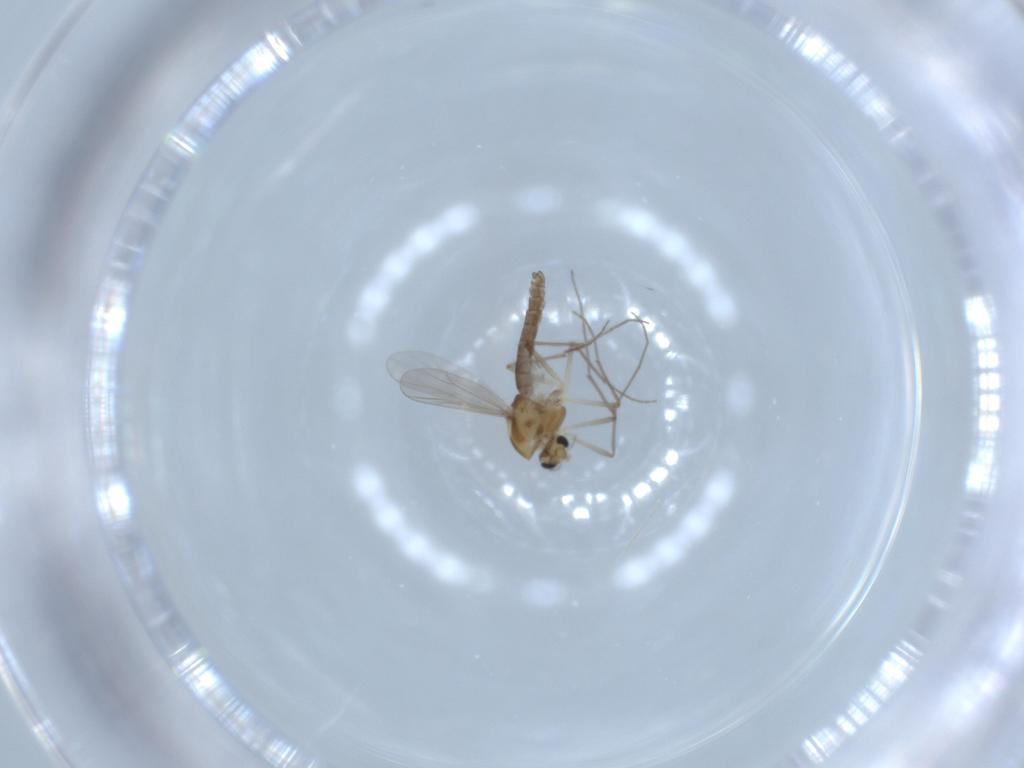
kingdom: Animalia
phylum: Arthropoda
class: Insecta
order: Diptera
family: Chironomidae
